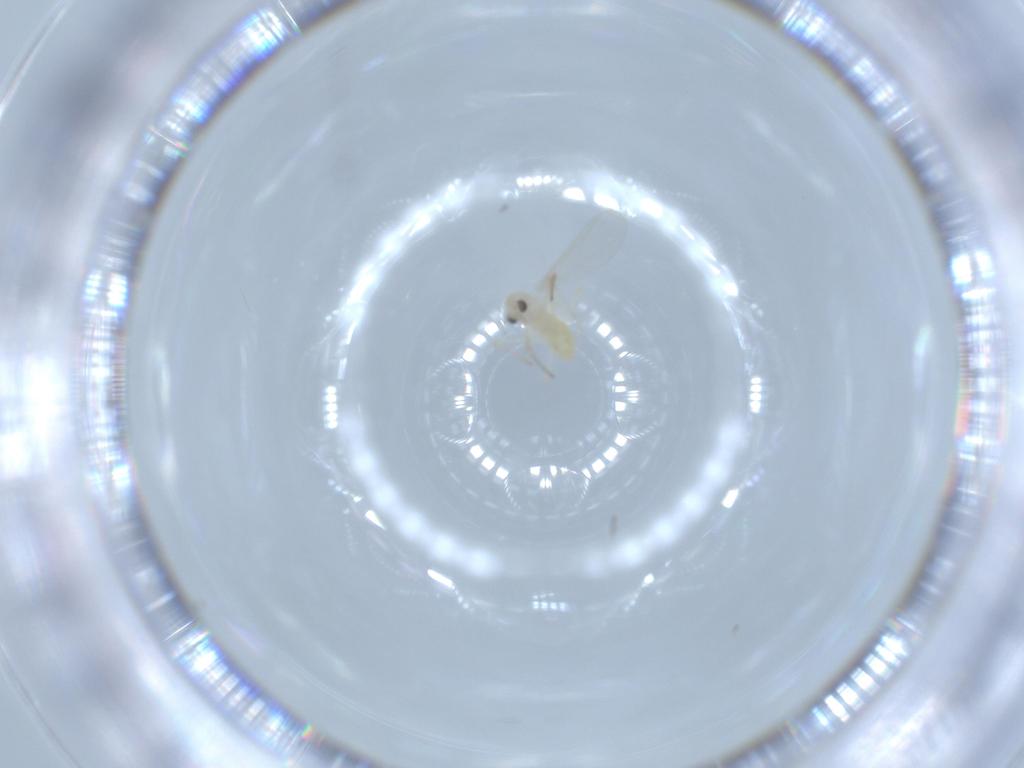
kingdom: Animalia
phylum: Arthropoda
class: Insecta
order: Diptera
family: Chironomidae
